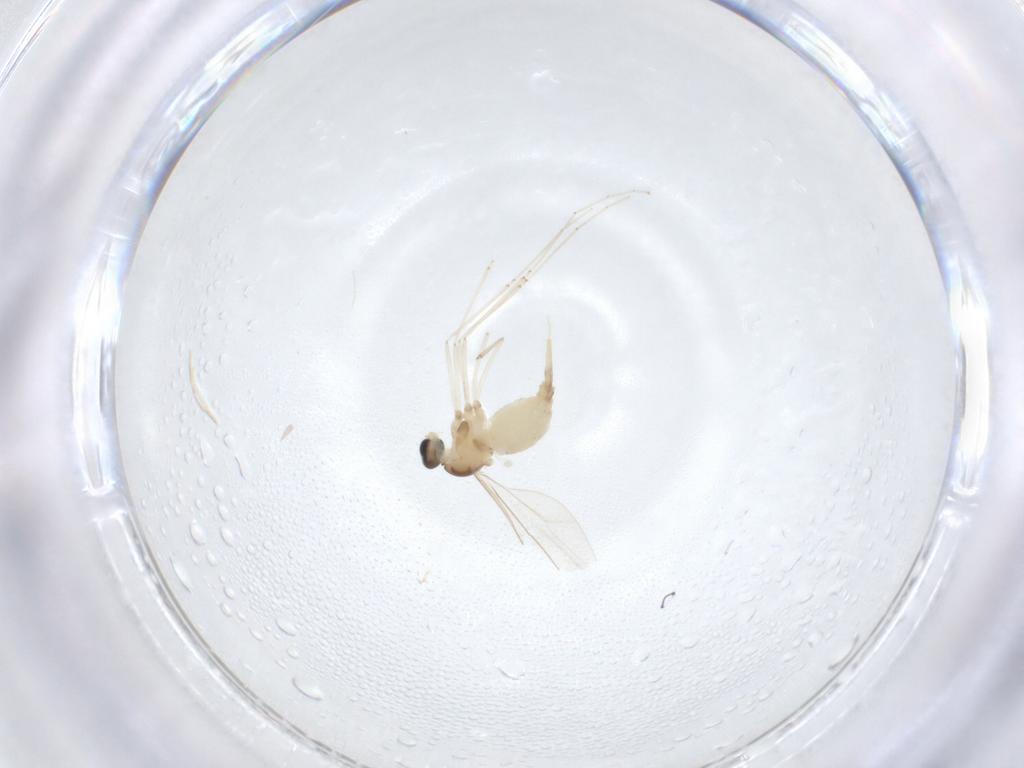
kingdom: Animalia
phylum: Arthropoda
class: Insecta
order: Diptera
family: Cecidomyiidae
